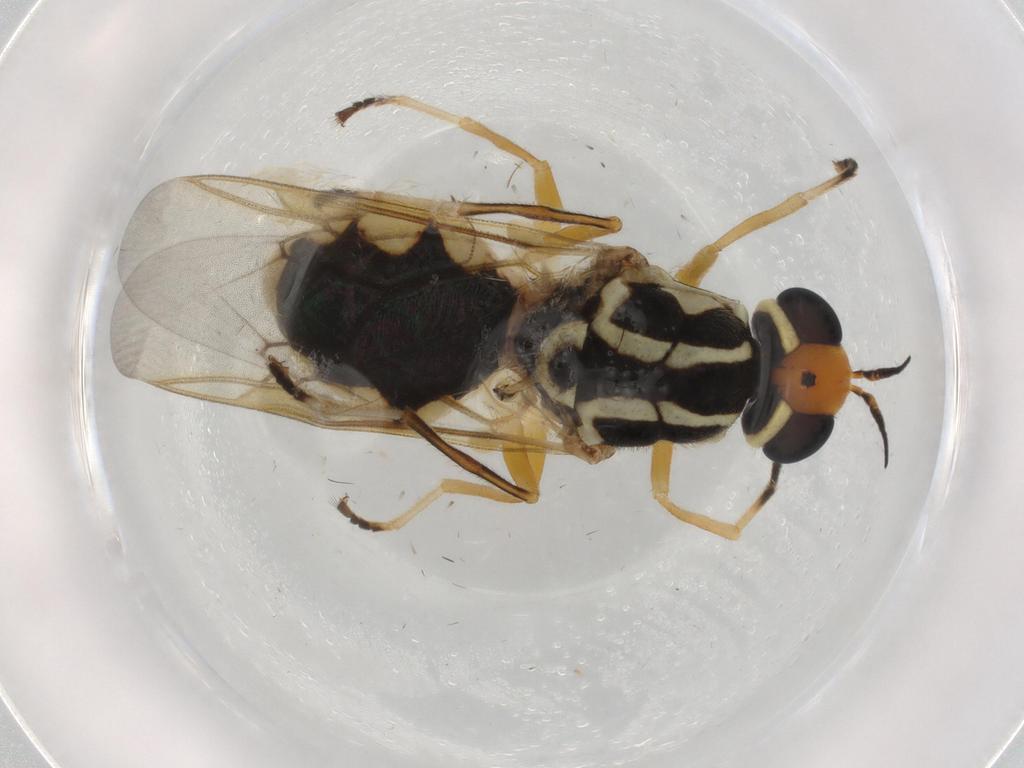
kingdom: Animalia
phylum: Arthropoda
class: Insecta
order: Diptera
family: Stratiomyidae
